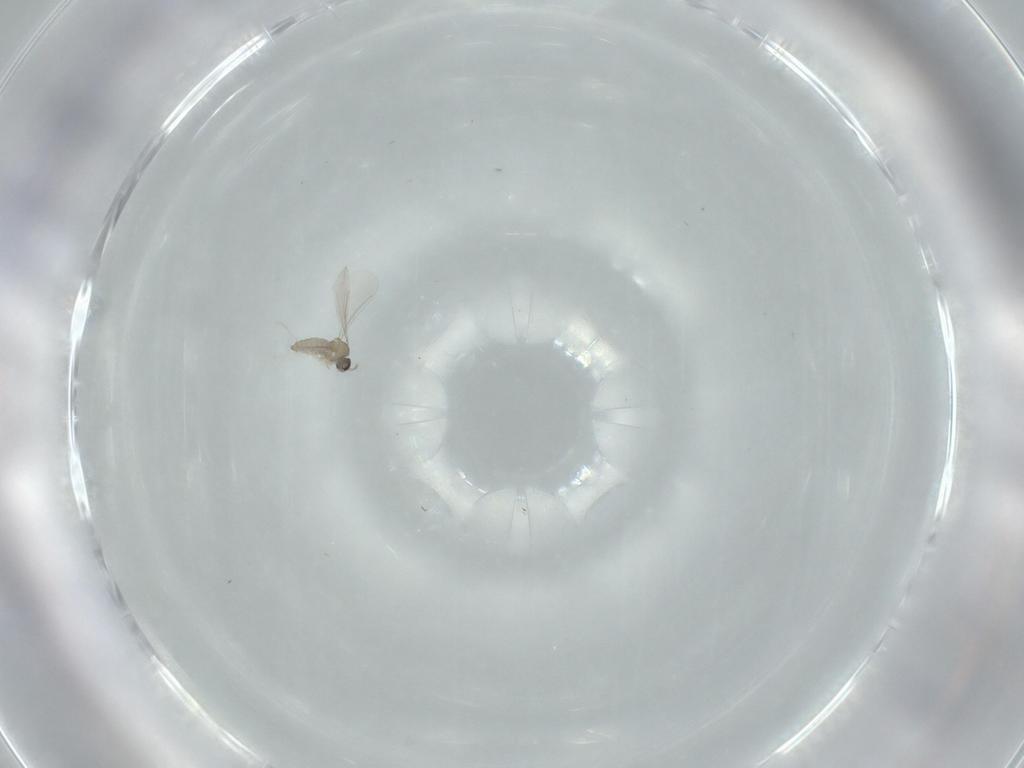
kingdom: Animalia
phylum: Arthropoda
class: Insecta
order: Diptera
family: Cecidomyiidae
